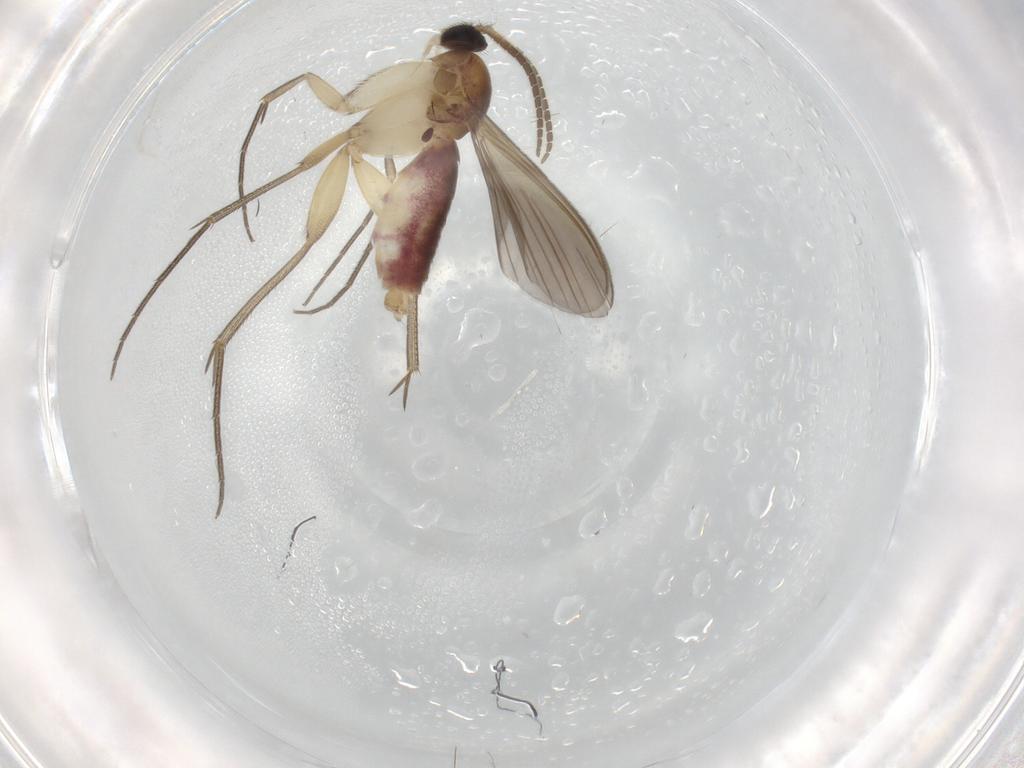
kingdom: Animalia
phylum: Arthropoda
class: Insecta
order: Diptera
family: Mycetophilidae
